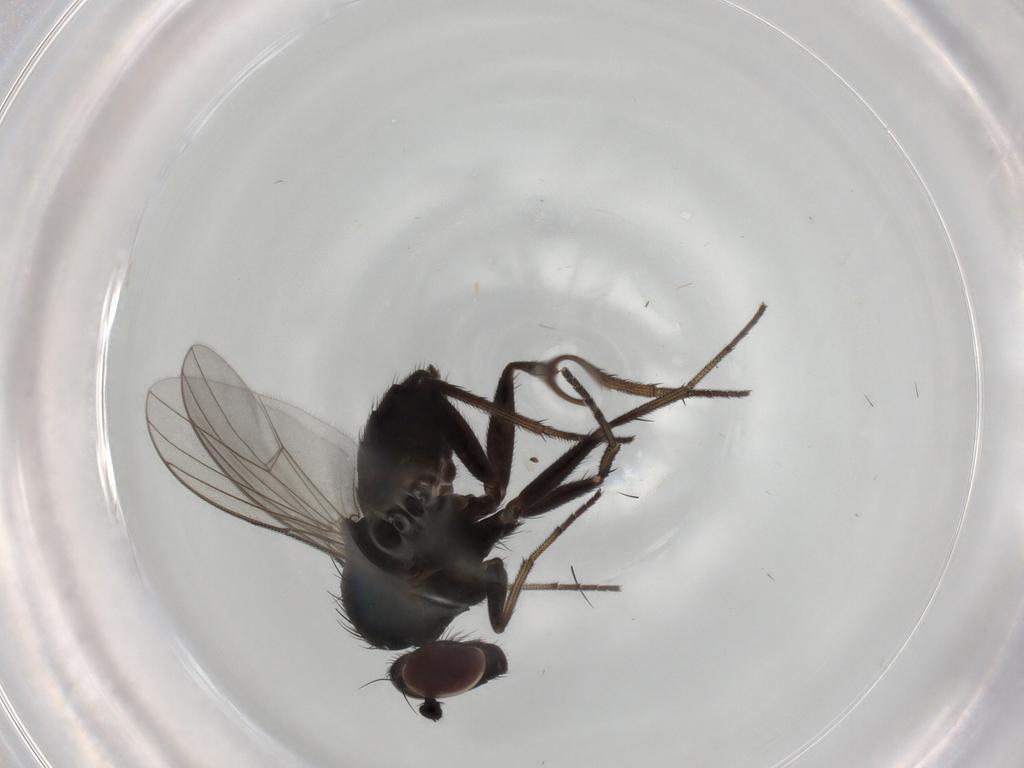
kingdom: Animalia
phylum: Arthropoda
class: Insecta
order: Diptera
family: Dolichopodidae
